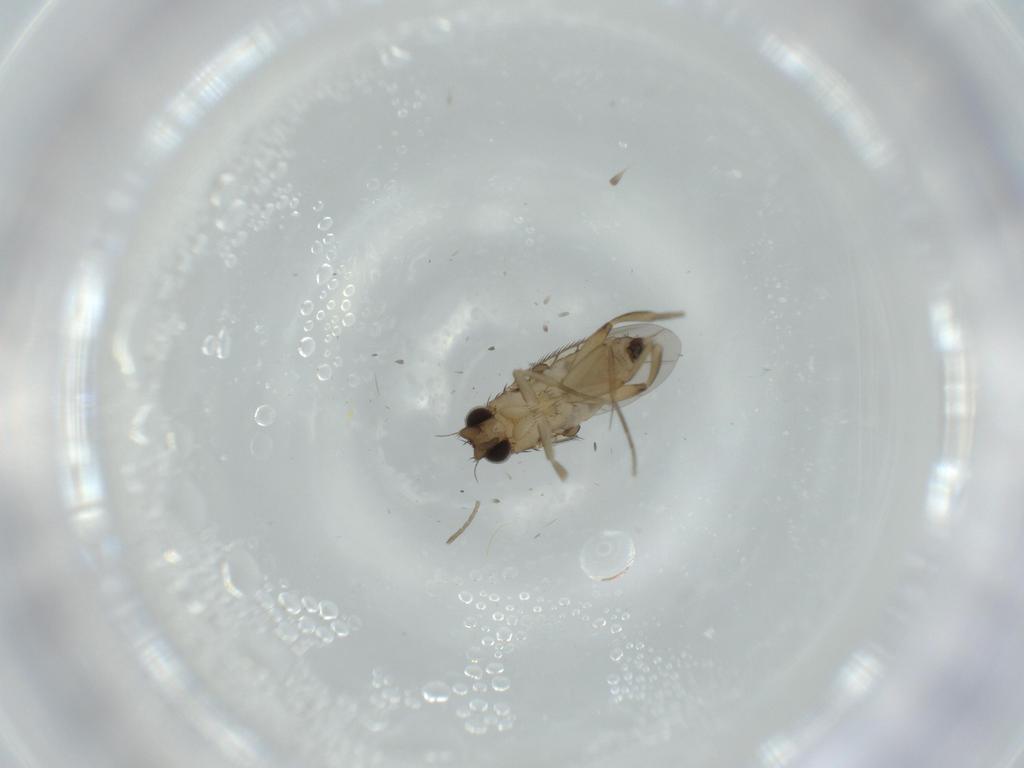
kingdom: Animalia
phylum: Arthropoda
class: Insecta
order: Diptera
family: Phoridae
